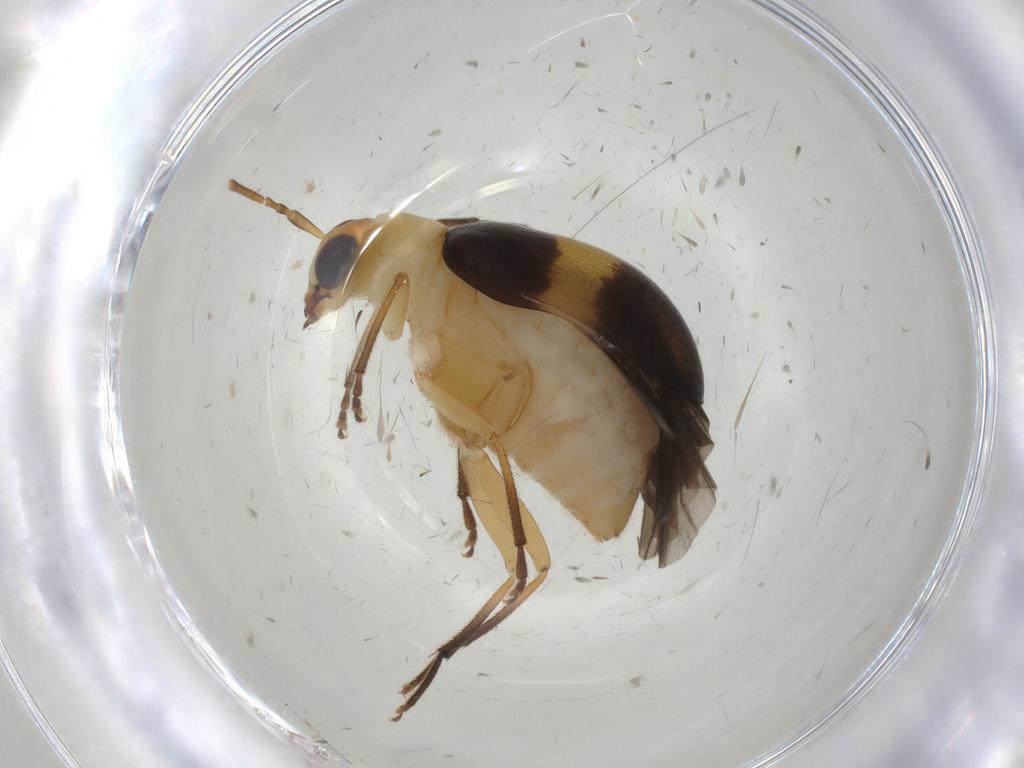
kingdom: Animalia
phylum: Arthropoda
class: Insecta
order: Coleoptera
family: Chrysomelidae
